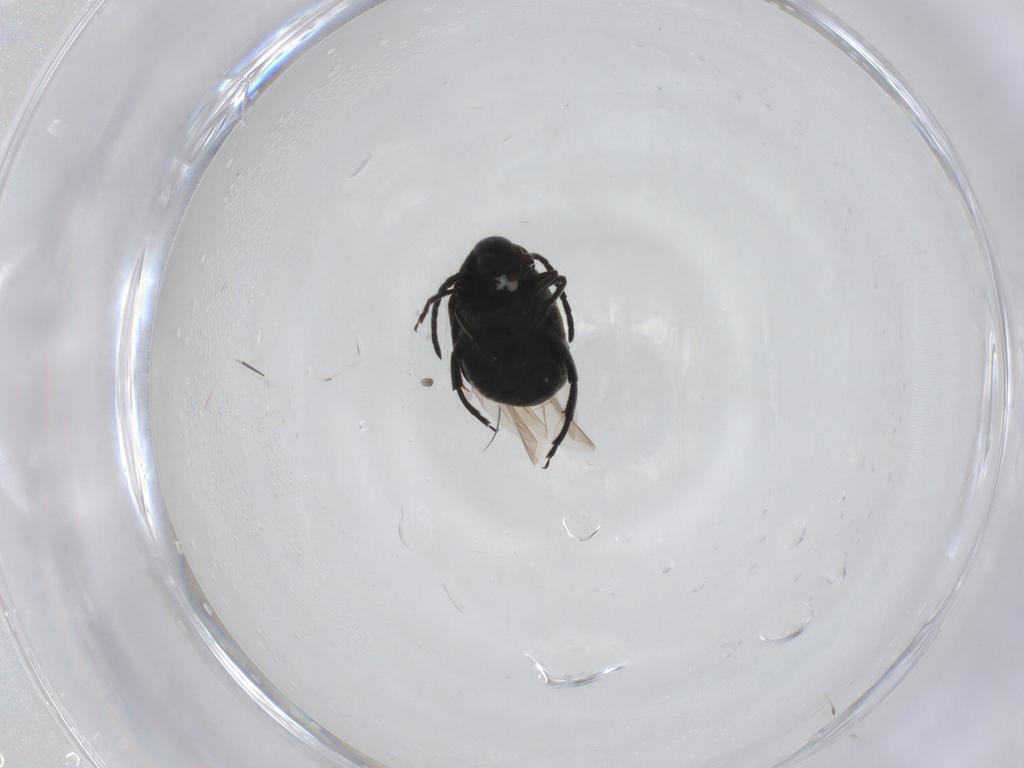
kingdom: Animalia
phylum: Arthropoda
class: Insecta
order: Coleoptera
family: Chrysomelidae
